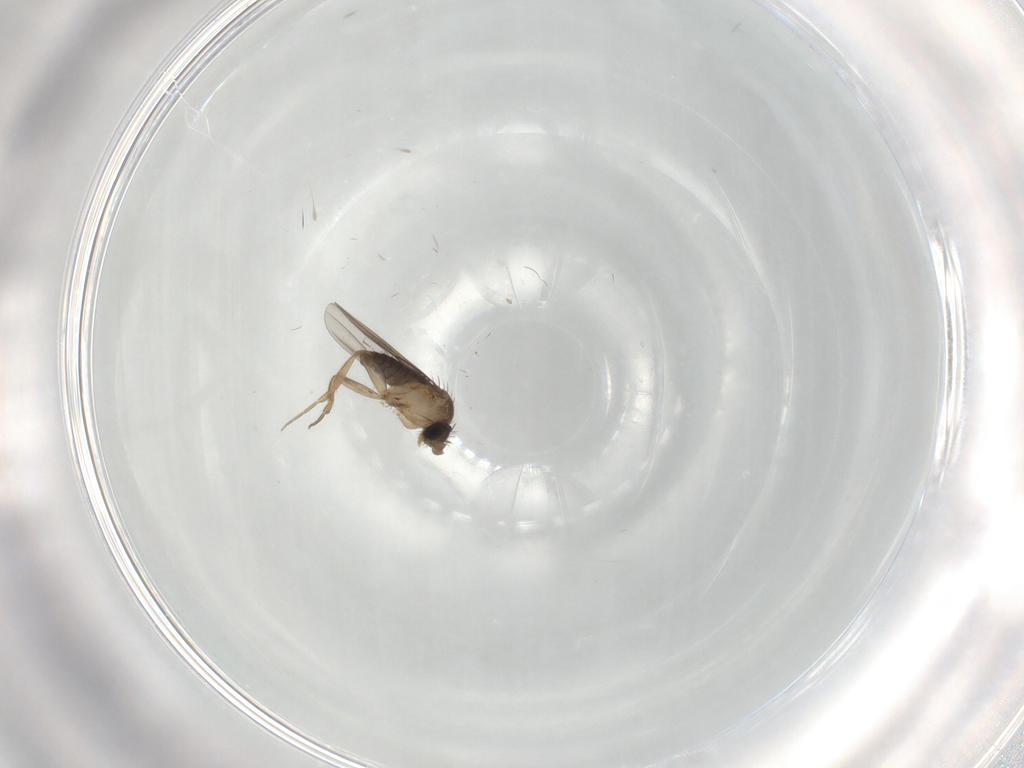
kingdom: Animalia
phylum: Arthropoda
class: Insecta
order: Diptera
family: Phoridae
